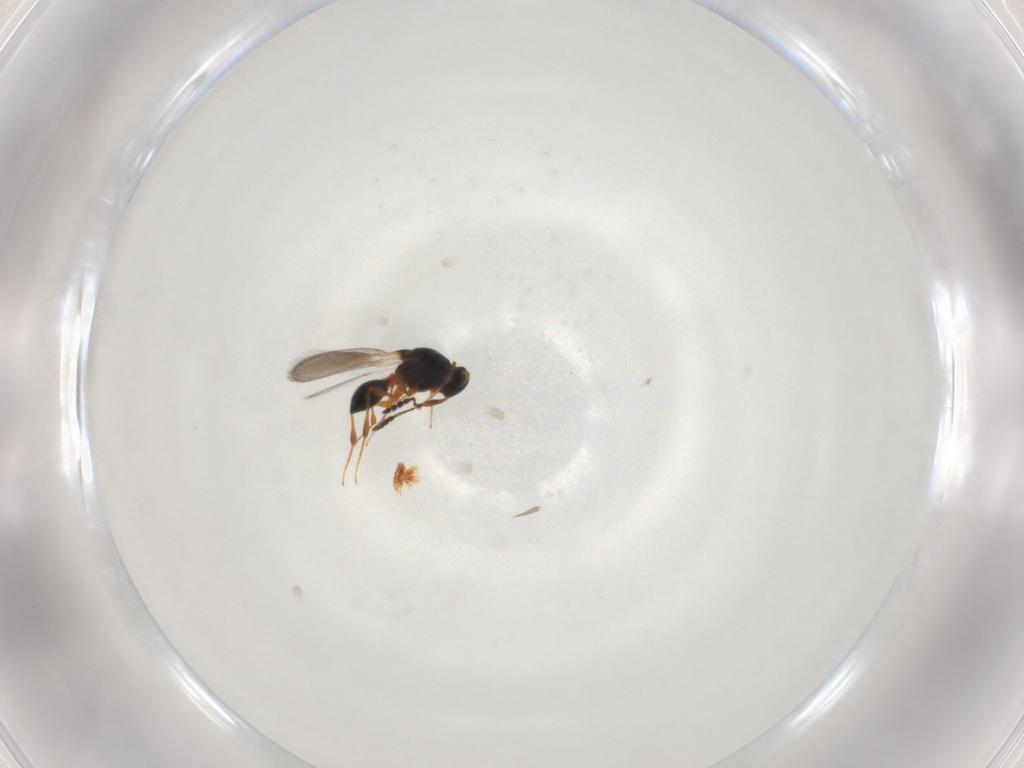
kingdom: Animalia
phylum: Arthropoda
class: Insecta
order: Hymenoptera
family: Platygastridae
